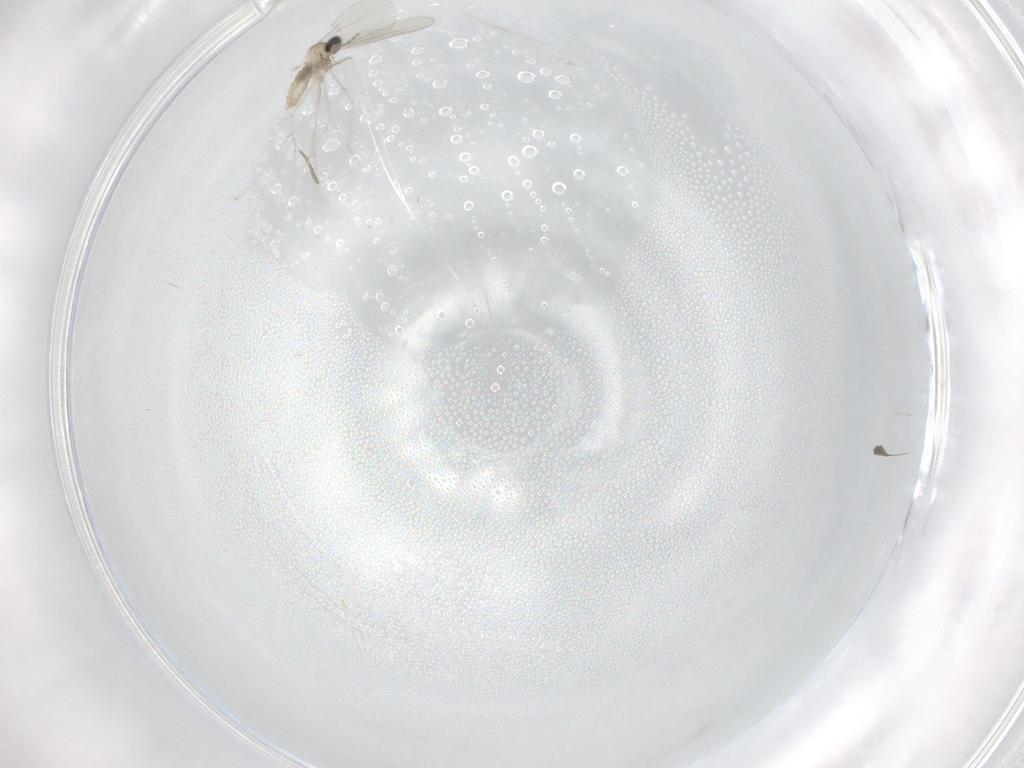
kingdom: Animalia
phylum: Arthropoda
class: Insecta
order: Diptera
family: Cecidomyiidae
